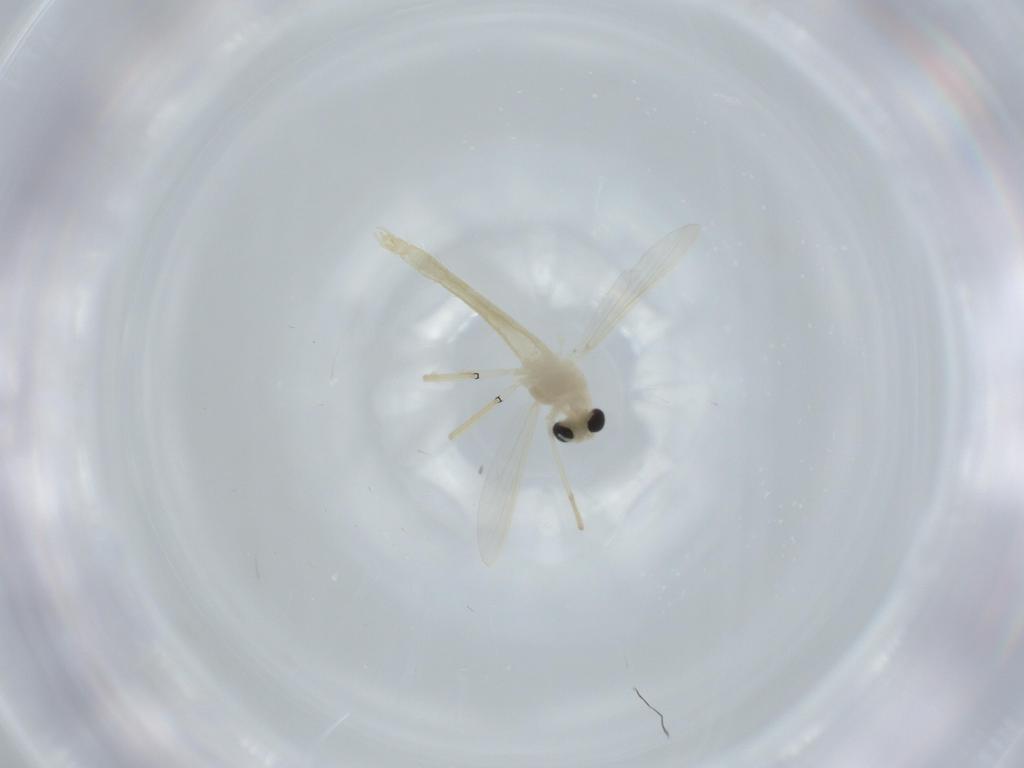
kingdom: Animalia
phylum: Arthropoda
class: Insecta
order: Diptera
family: Chironomidae
